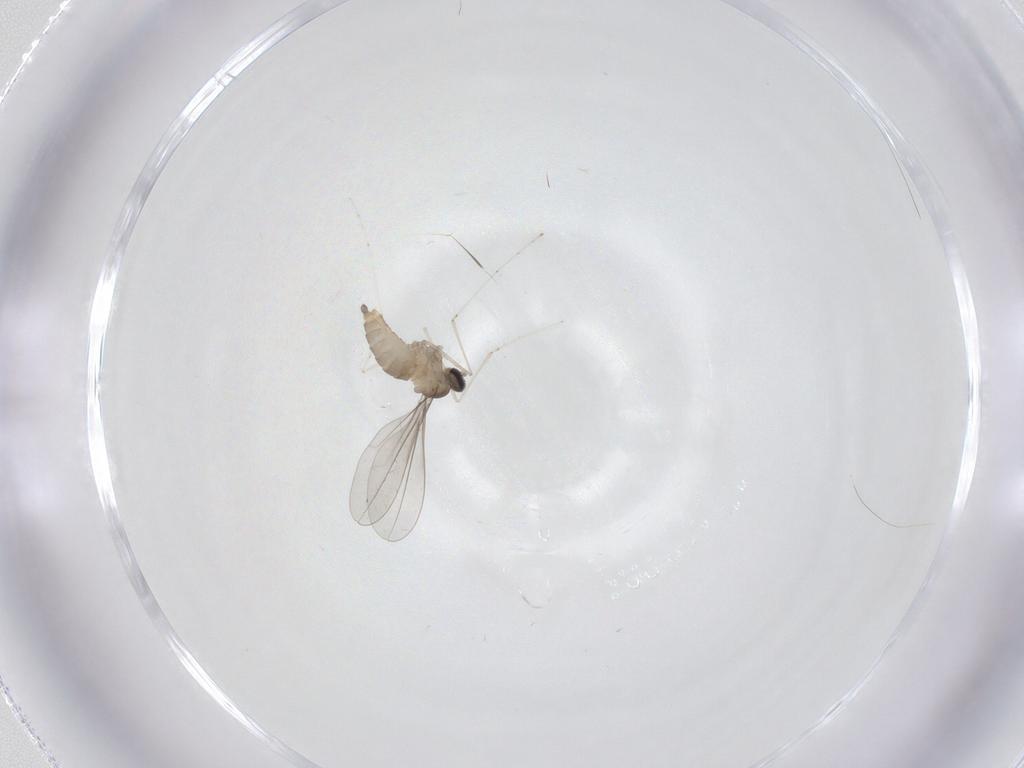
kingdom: Animalia
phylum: Arthropoda
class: Insecta
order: Diptera
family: Cecidomyiidae
